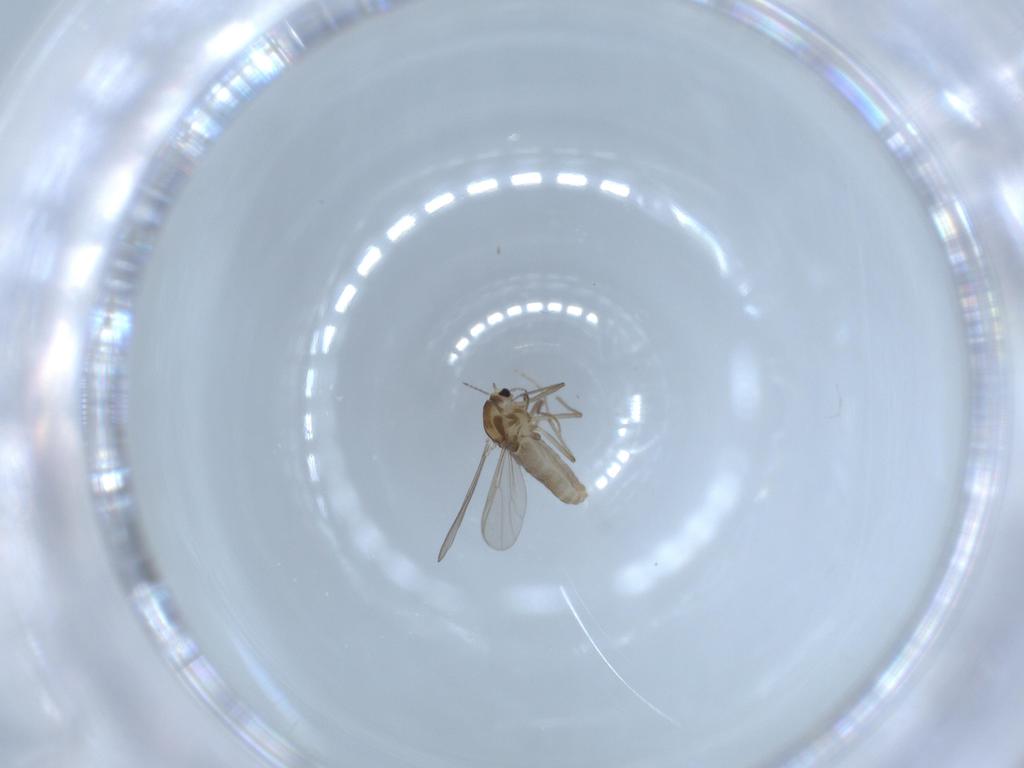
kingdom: Animalia
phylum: Arthropoda
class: Insecta
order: Diptera
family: Chironomidae
